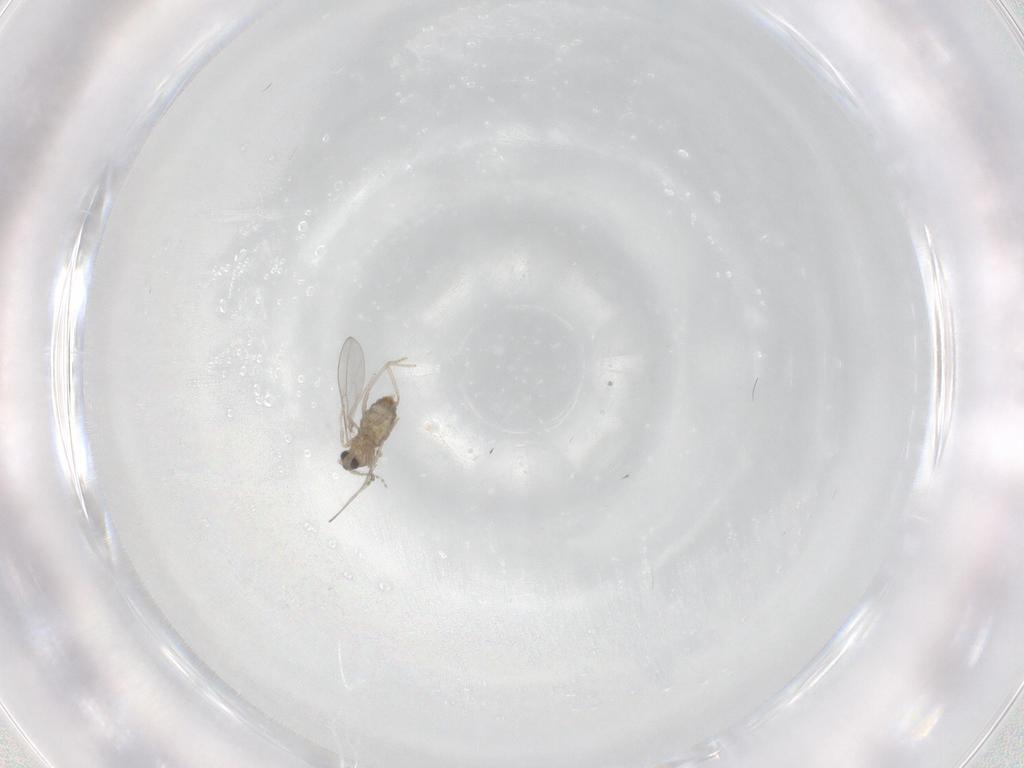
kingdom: Animalia
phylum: Arthropoda
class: Insecta
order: Diptera
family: Cecidomyiidae
